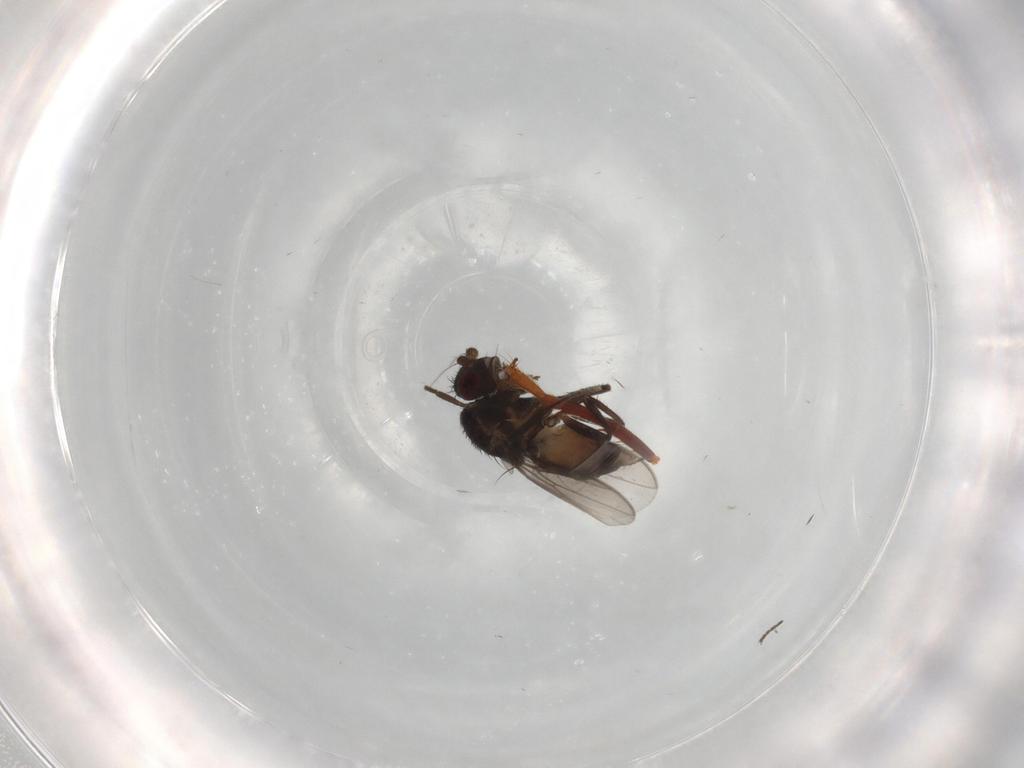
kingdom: Animalia
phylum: Arthropoda
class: Insecta
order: Diptera
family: Sphaeroceridae
